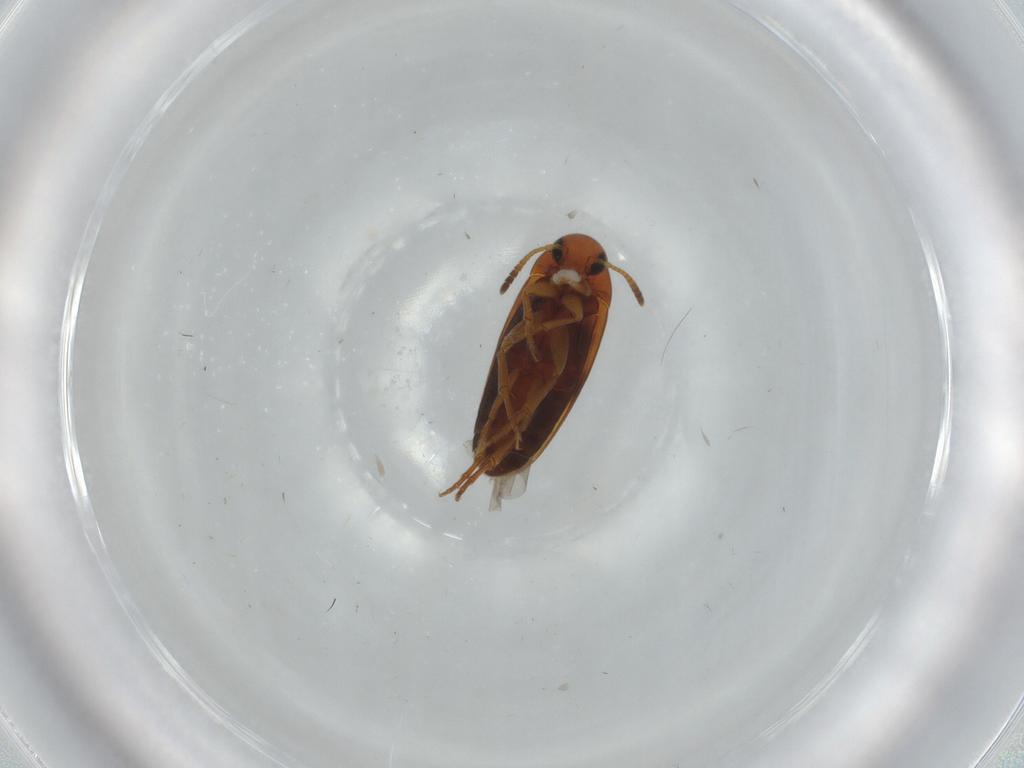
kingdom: Animalia
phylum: Arthropoda
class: Insecta
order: Coleoptera
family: Scraptiidae
